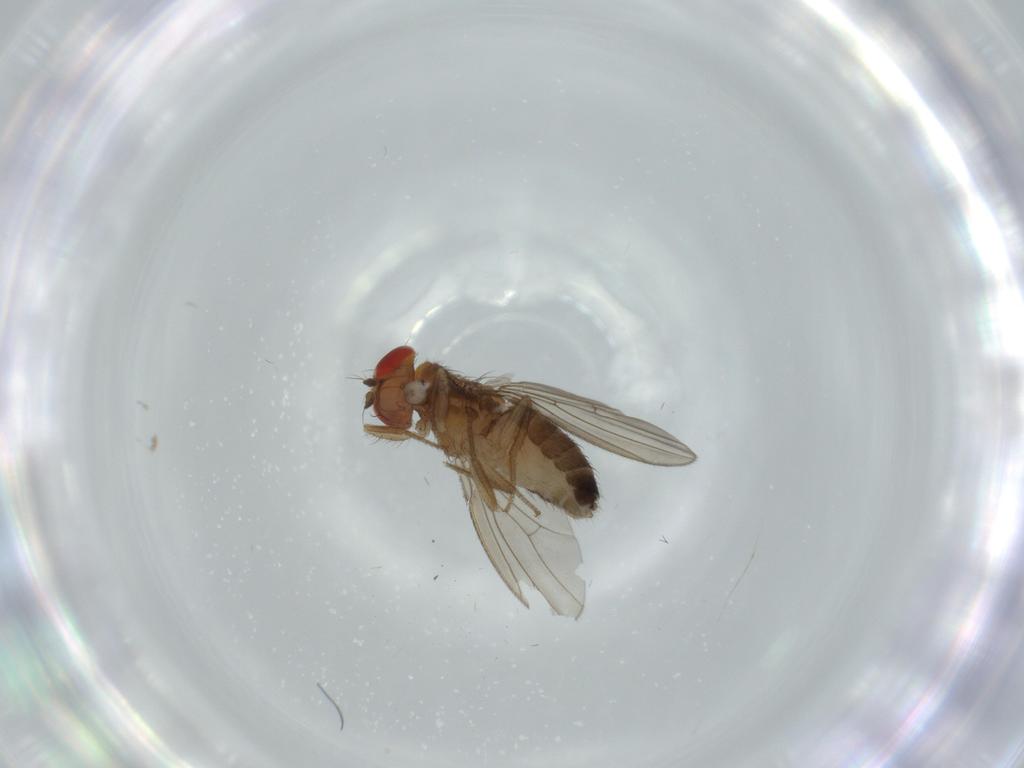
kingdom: Animalia
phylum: Arthropoda
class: Insecta
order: Diptera
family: Drosophilidae
